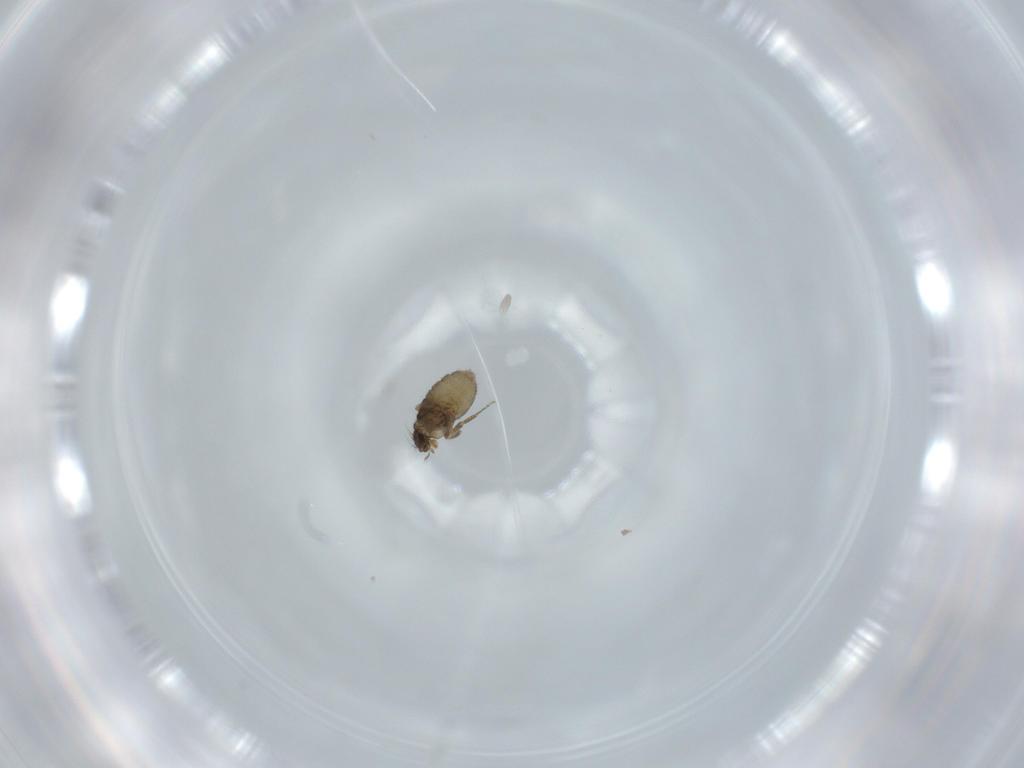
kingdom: Animalia
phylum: Arthropoda
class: Insecta
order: Diptera
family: Phoridae
